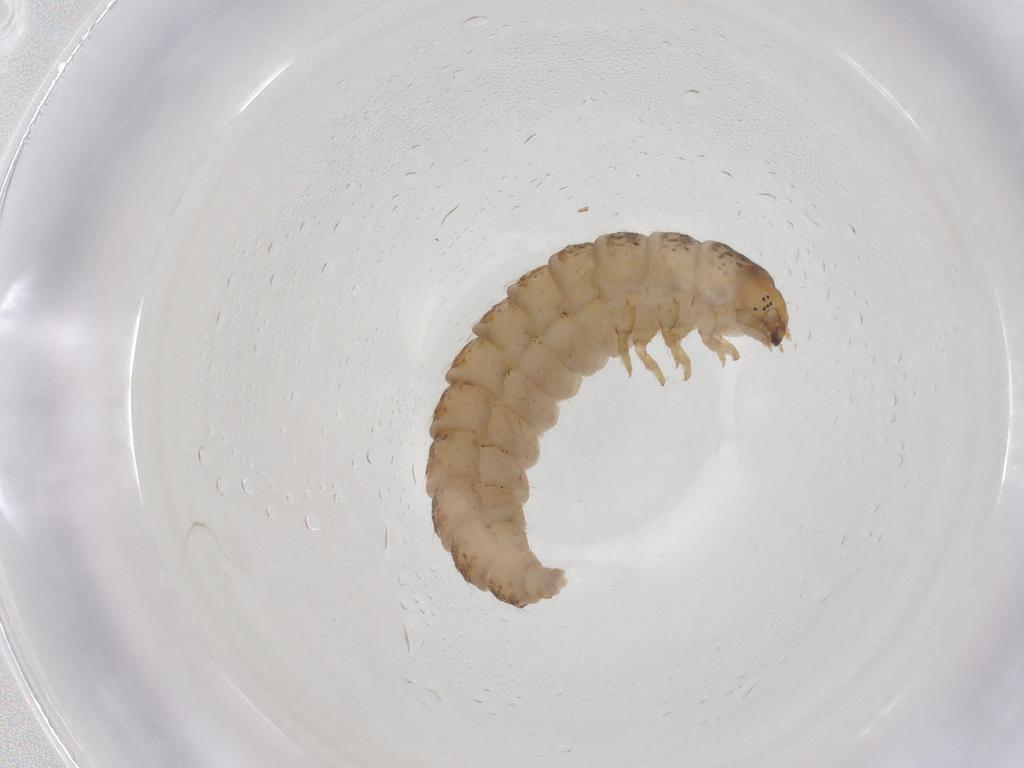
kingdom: Animalia
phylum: Arthropoda
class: Insecta
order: Coleoptera
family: Byturidae
